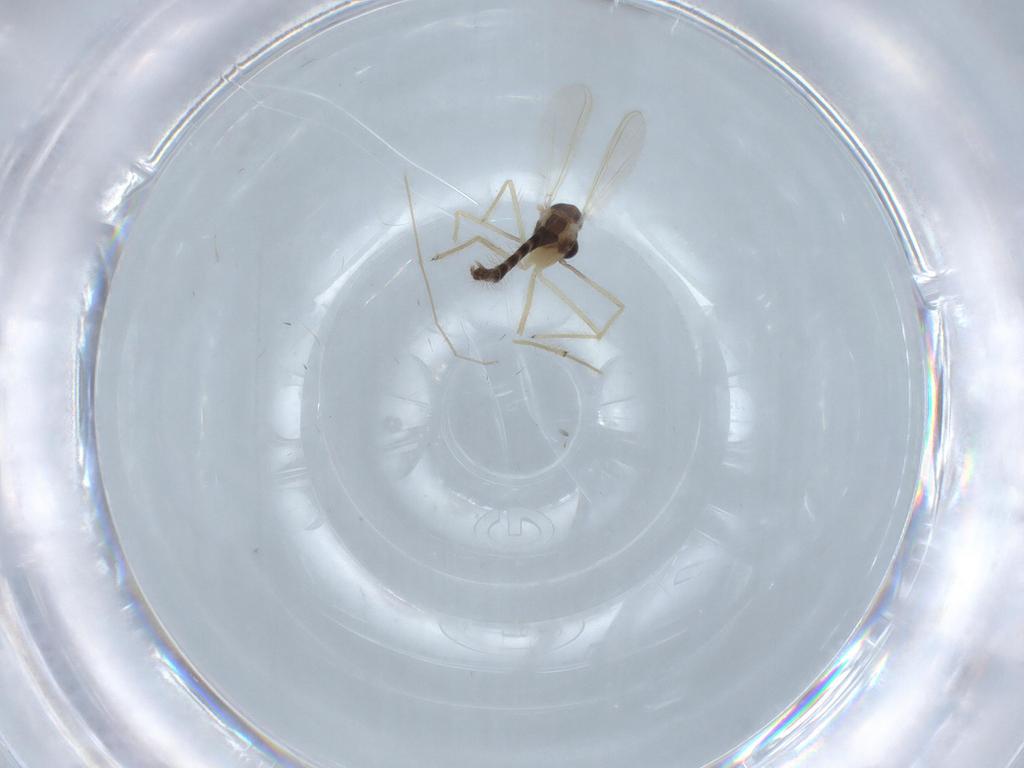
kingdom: Animalia
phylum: Arthropoda
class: Insecta
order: Diptera
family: Chironomidae
